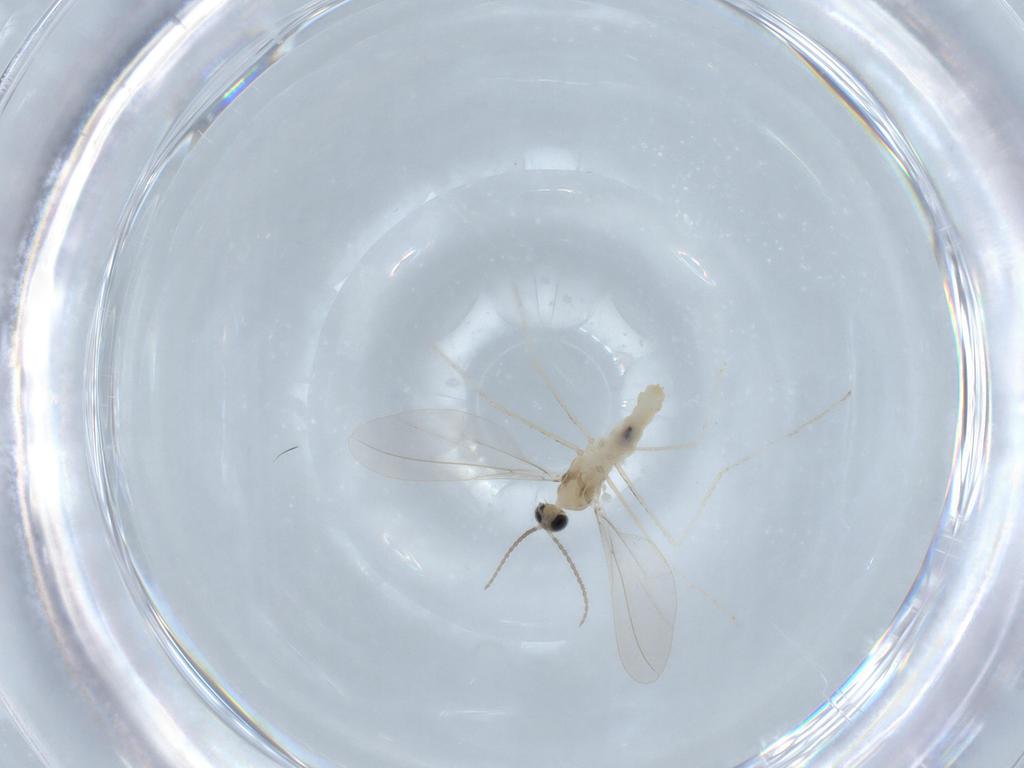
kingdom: Animalia
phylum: Arthropoda
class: Insecta
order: Diptera
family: Cecidomyiidae
